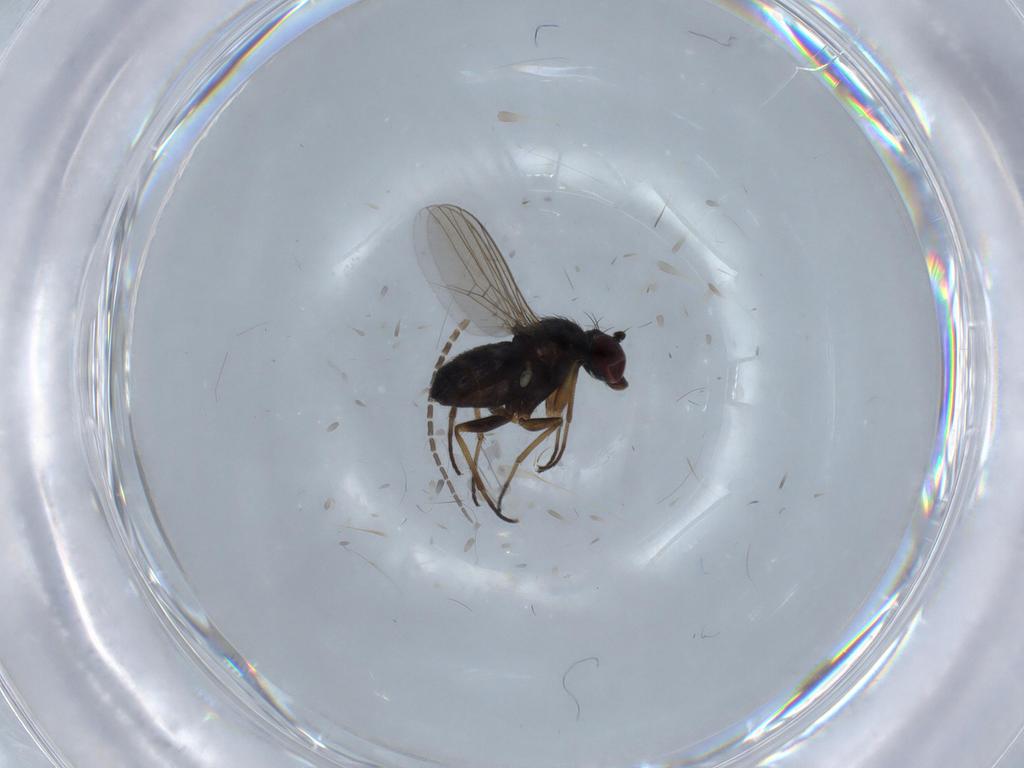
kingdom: Animalia
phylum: Arthropoda
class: Insecta
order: Diptera
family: Dolichopodidae
